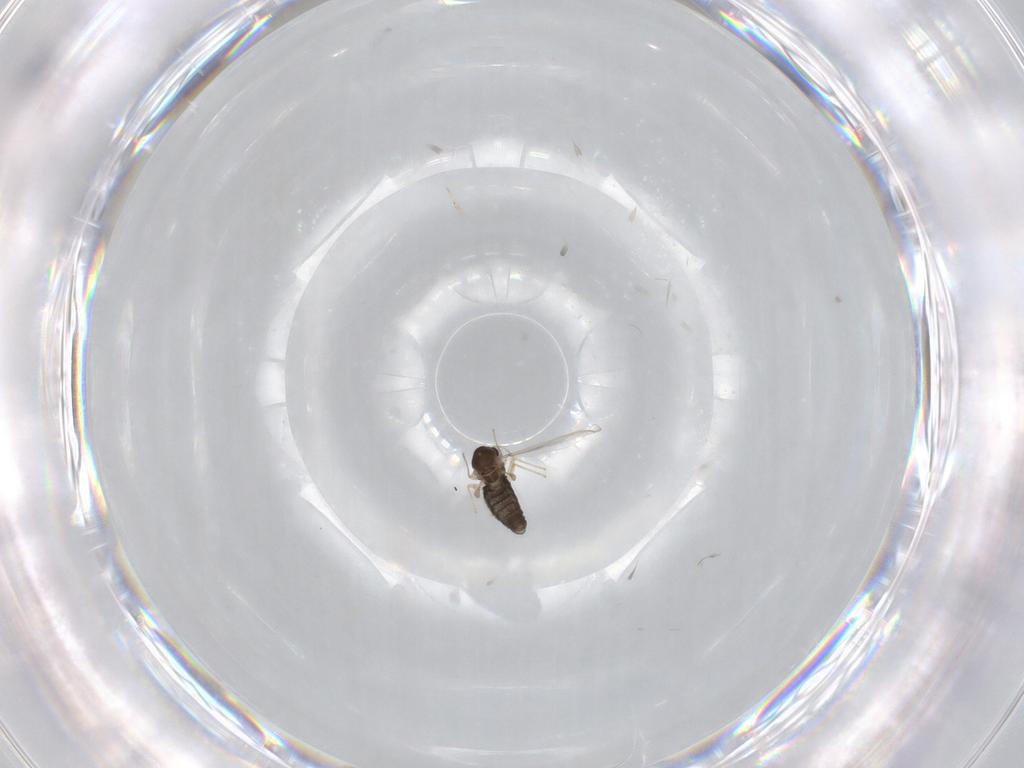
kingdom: Animalia
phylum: Arthropoda
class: Insecta
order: Diptera
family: Chironomidae
